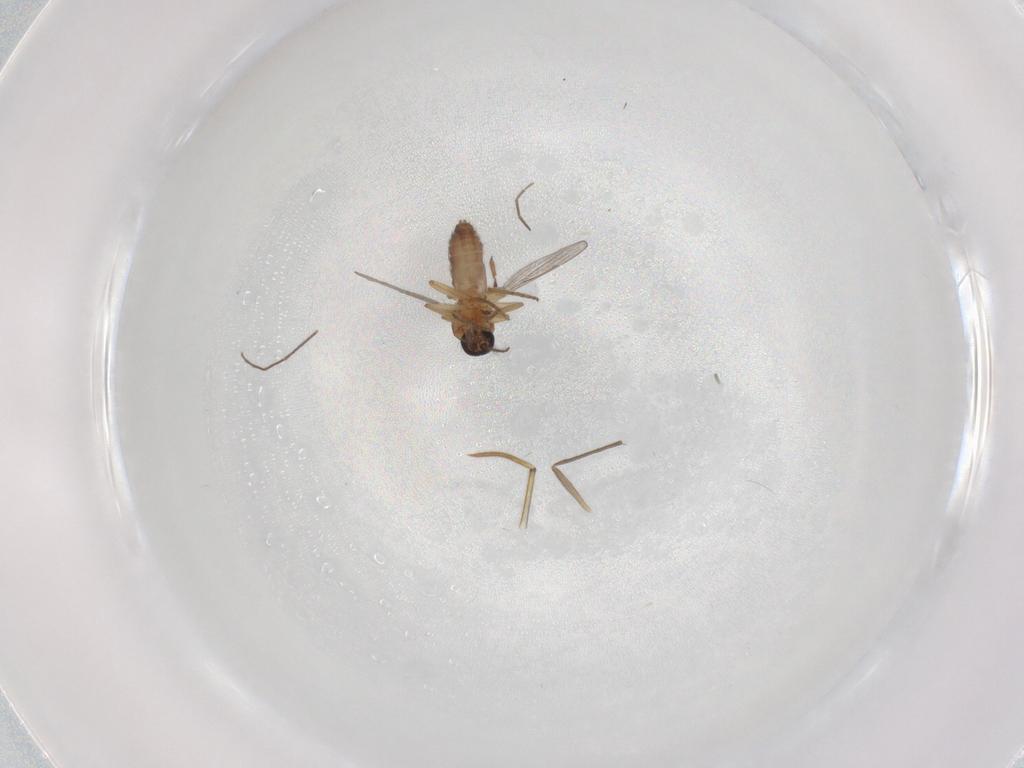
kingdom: Animalia
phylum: Arthropoda
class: Insecta
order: Diptera
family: Chironomidae
